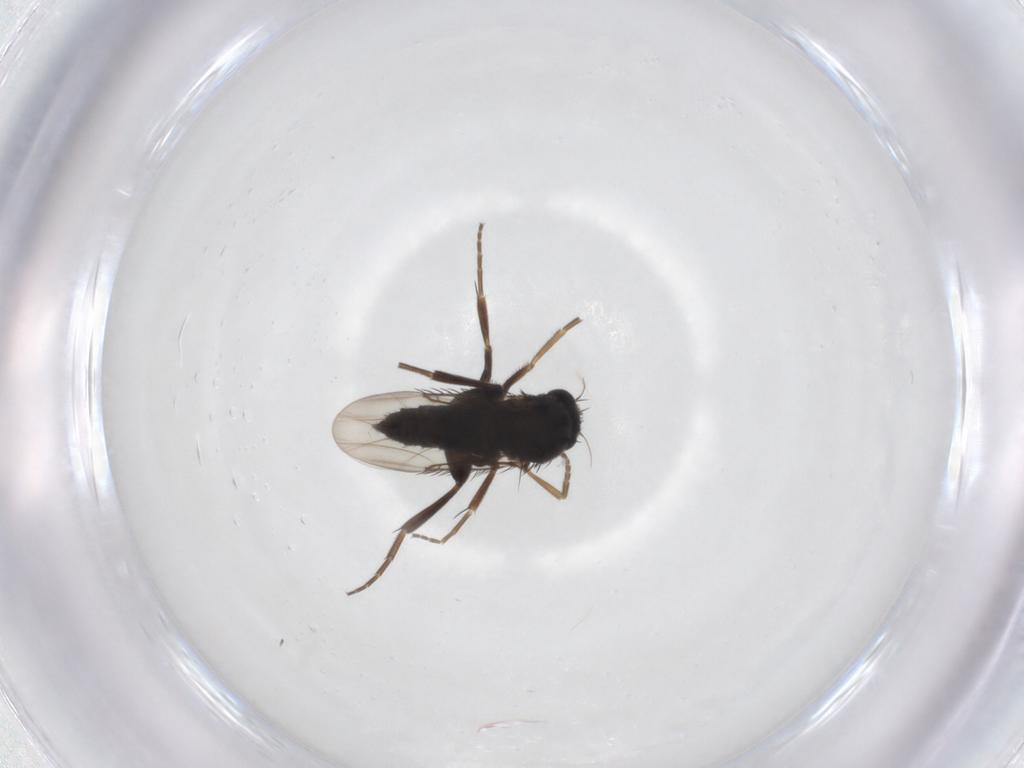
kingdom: Animalia
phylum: Arthropoda
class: Insecta
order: Diptera
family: Phoridae
